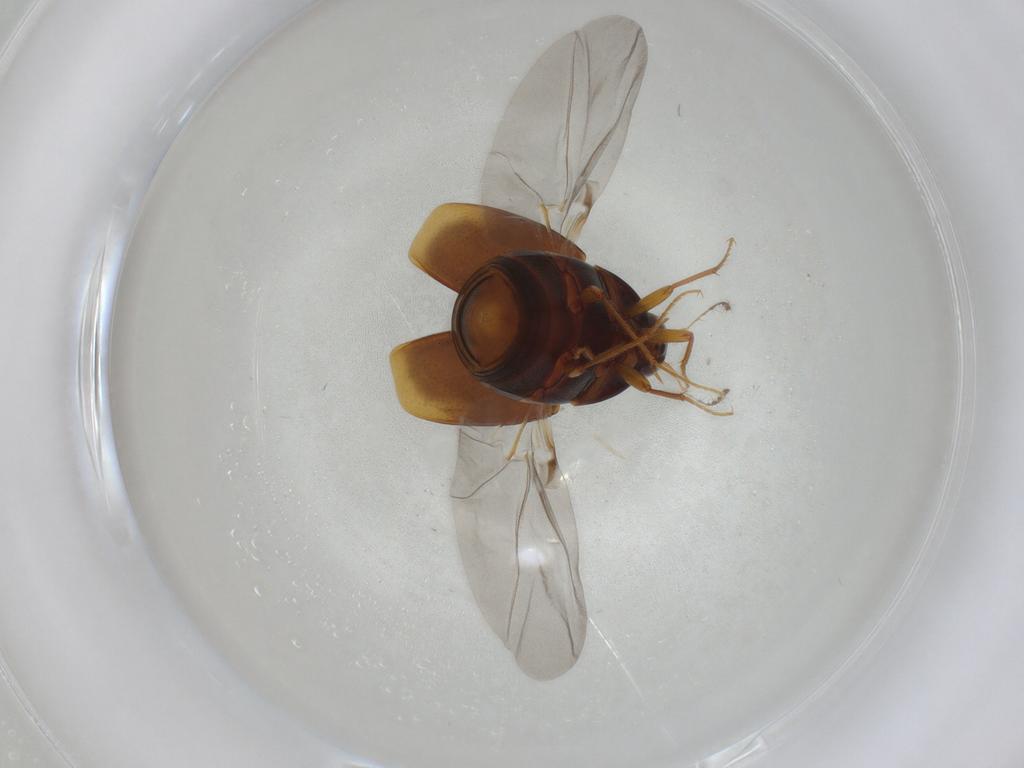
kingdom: Animalia
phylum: Arthropoda
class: Insecta
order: Coleoptera
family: Staphylinidae
